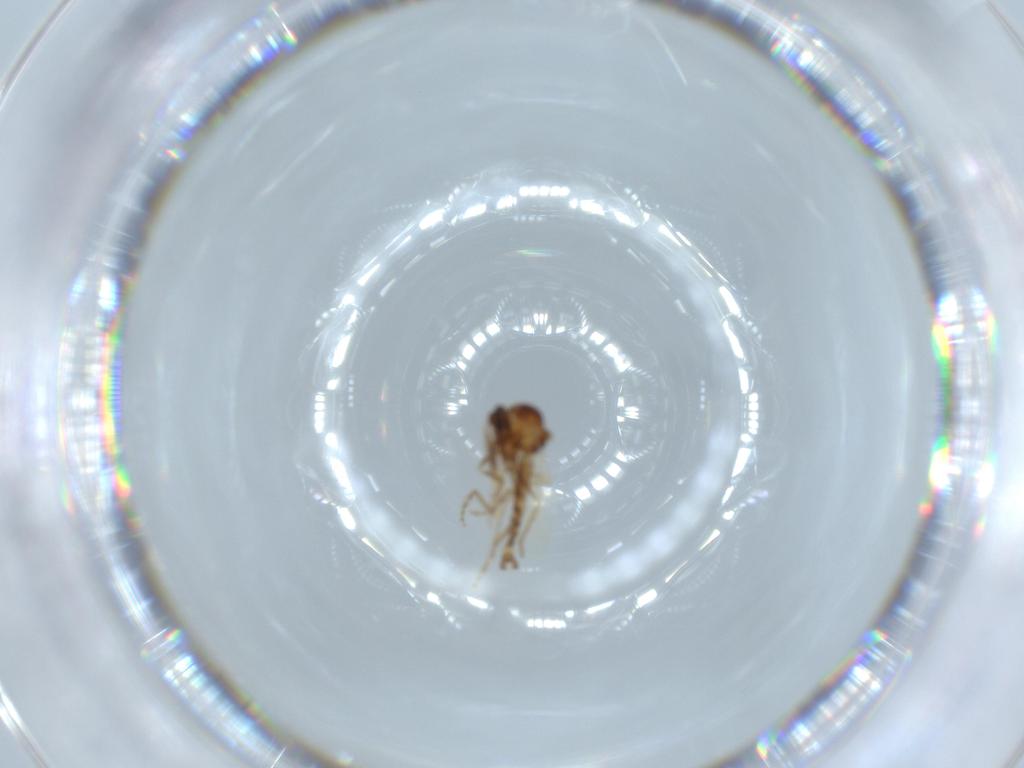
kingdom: Animalia
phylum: Arthropoda
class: Insecta
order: Diptera
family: Ceratopogonidae
